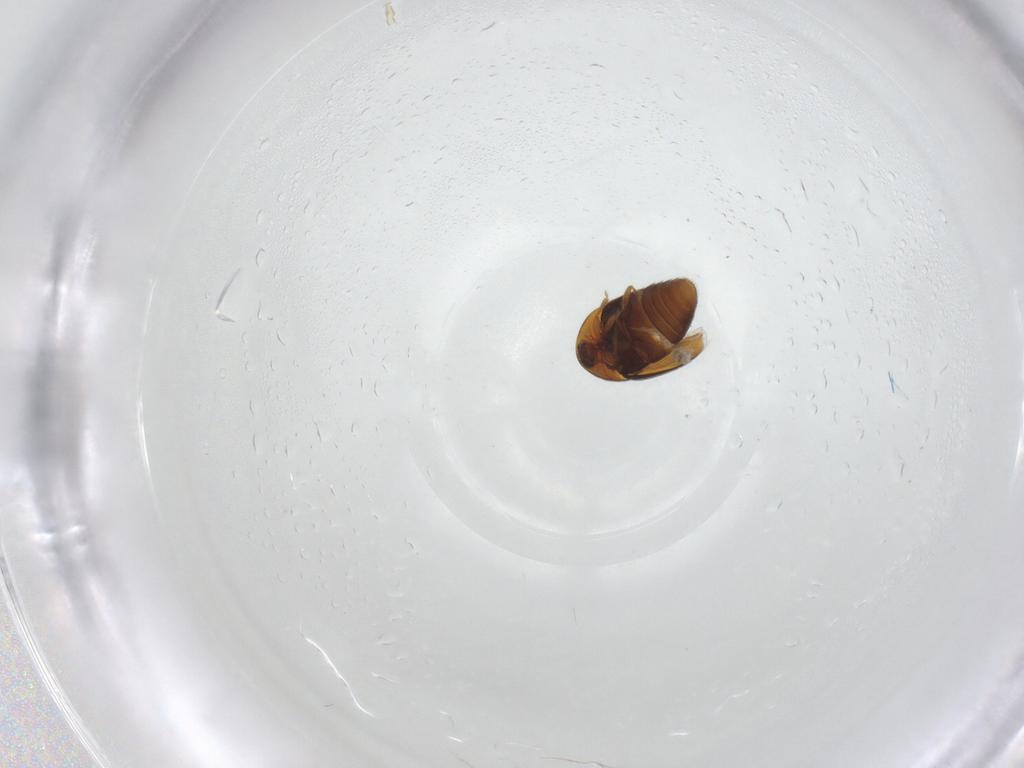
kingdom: Animalia
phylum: Arthropoda
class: Insecta
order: Coleoptera
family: Corylophidae
